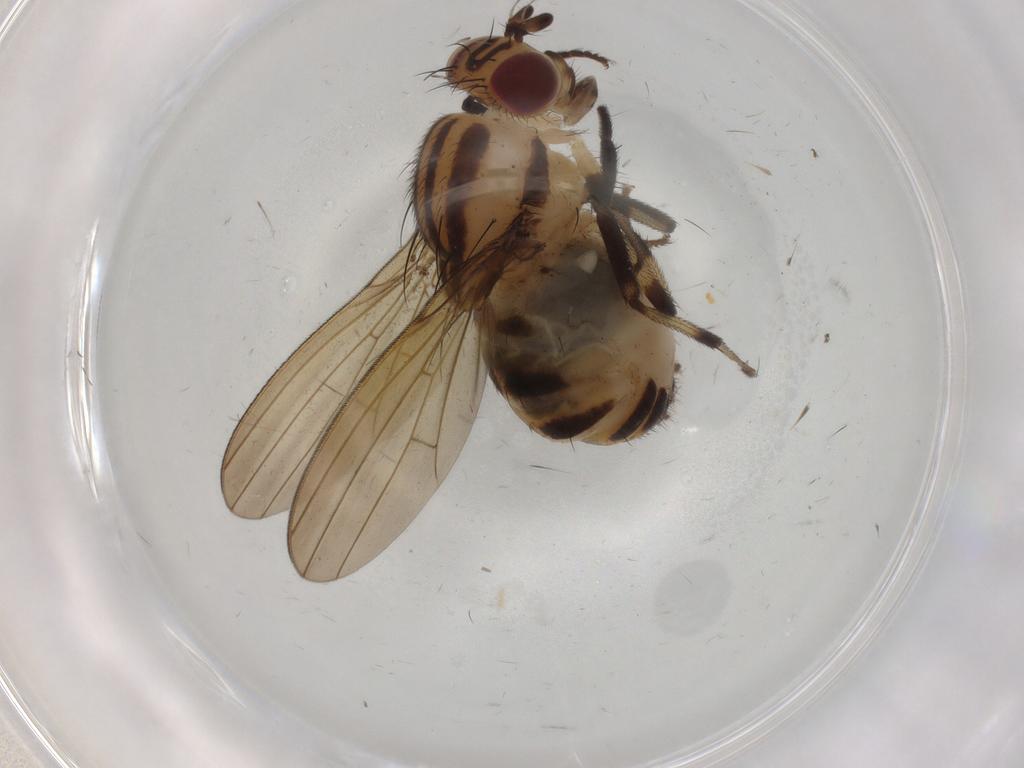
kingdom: Animalia
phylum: Arthropoda
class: Insecta
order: Diptera
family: Lauxaniidae
